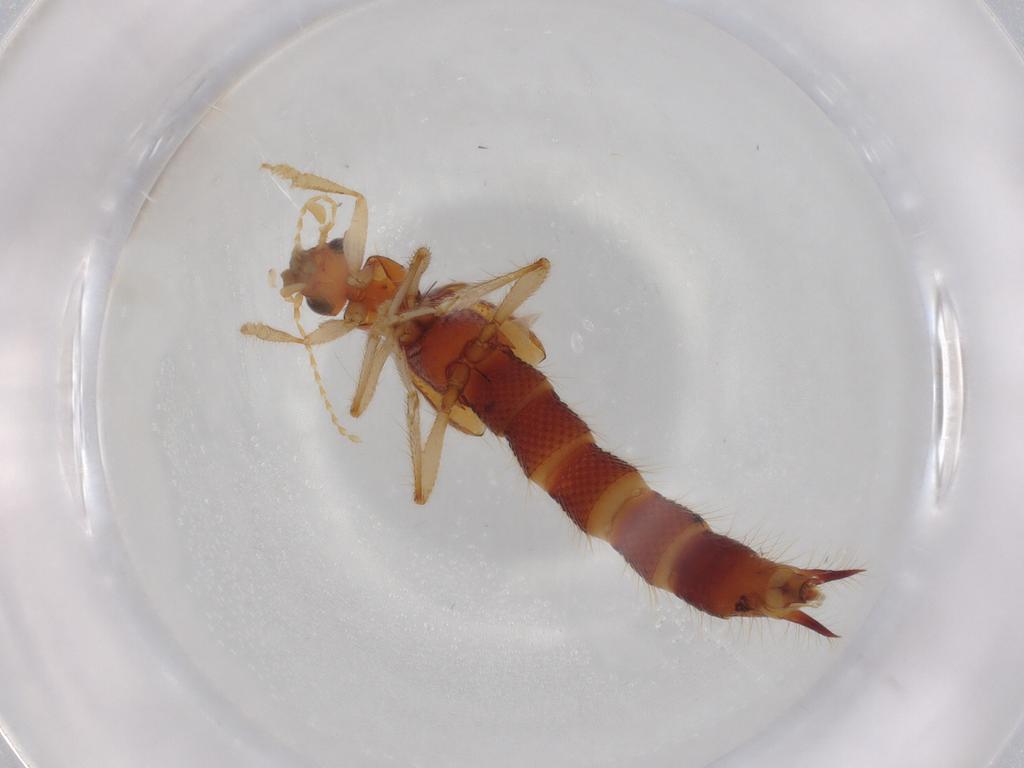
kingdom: Animalia
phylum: Arthropoda
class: Insecta
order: Coleoptera
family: Staphylinidae
